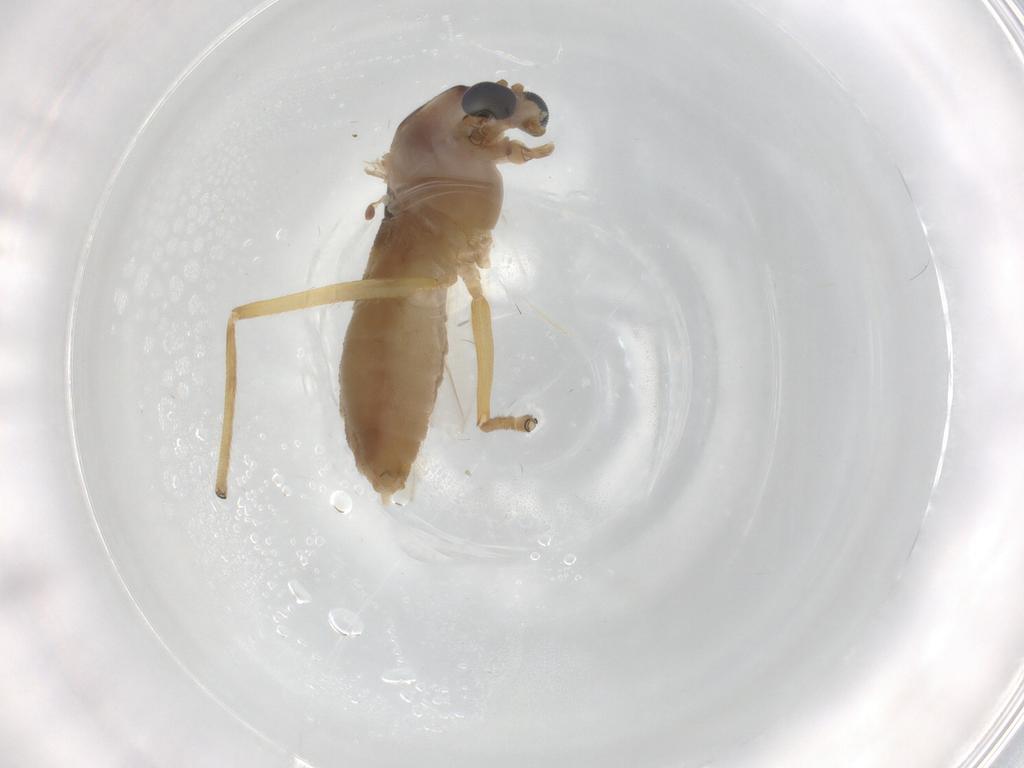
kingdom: Animalia
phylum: Arthropoda
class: Insecta
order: Diptera
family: Chironomidae
